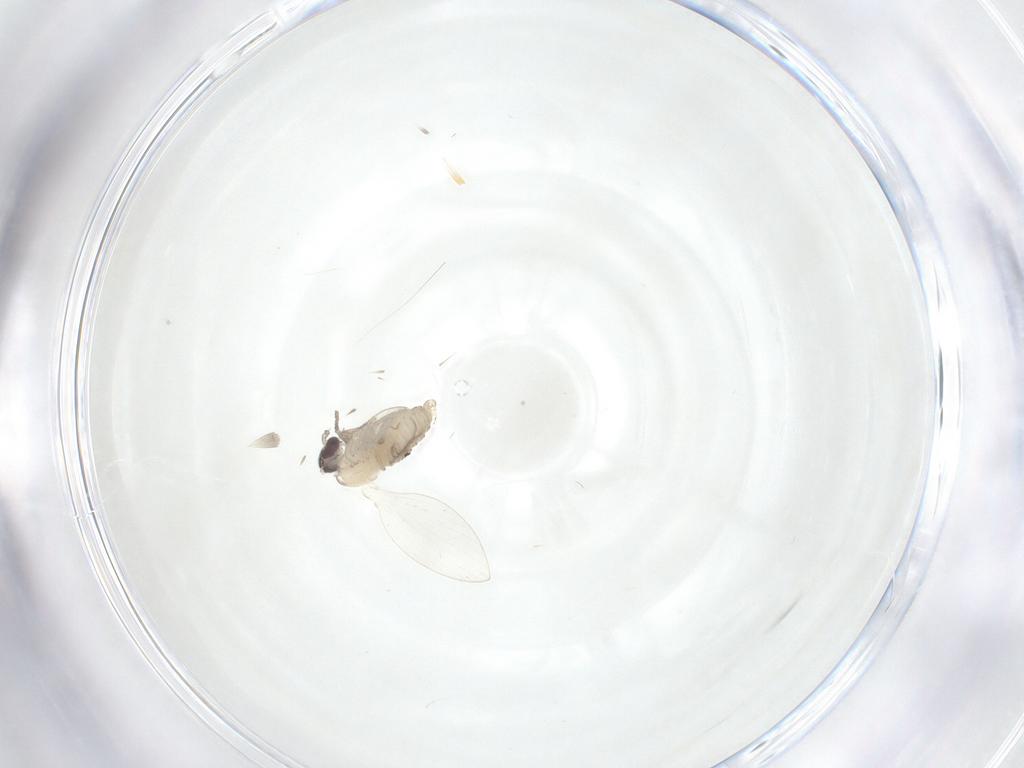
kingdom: Animalia
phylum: Arthropoda
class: Insecta
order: Diptera
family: Psychodidae
